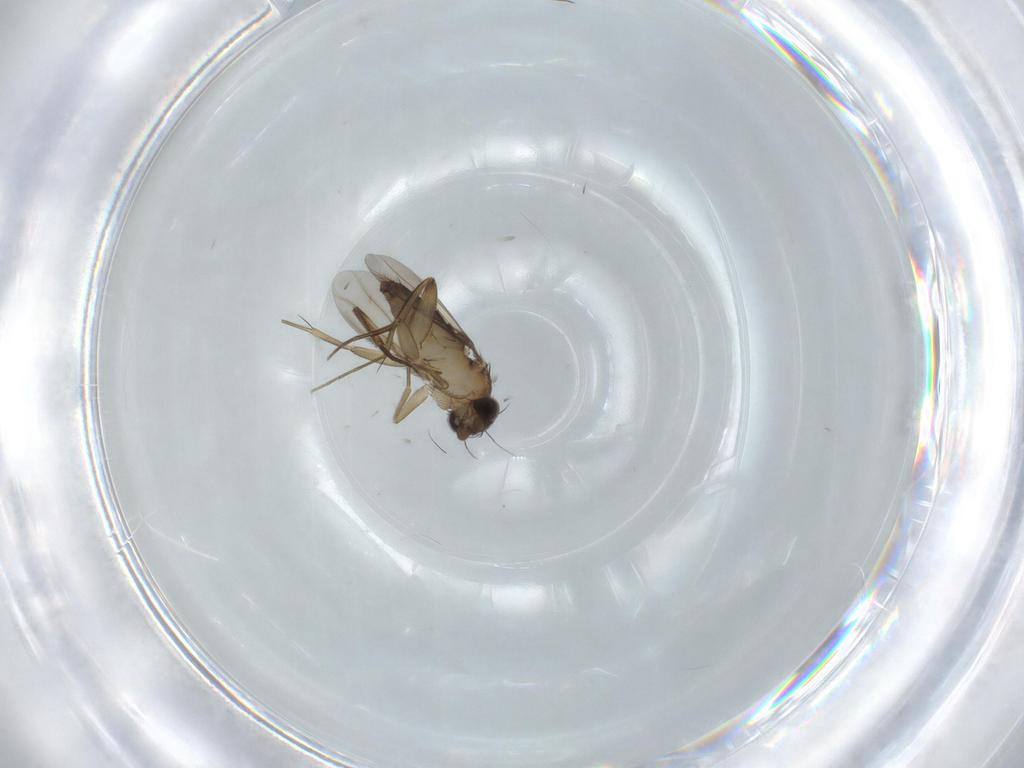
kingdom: Animalia
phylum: Arthropoda
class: Insecta
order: Diptera
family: Phoridae
